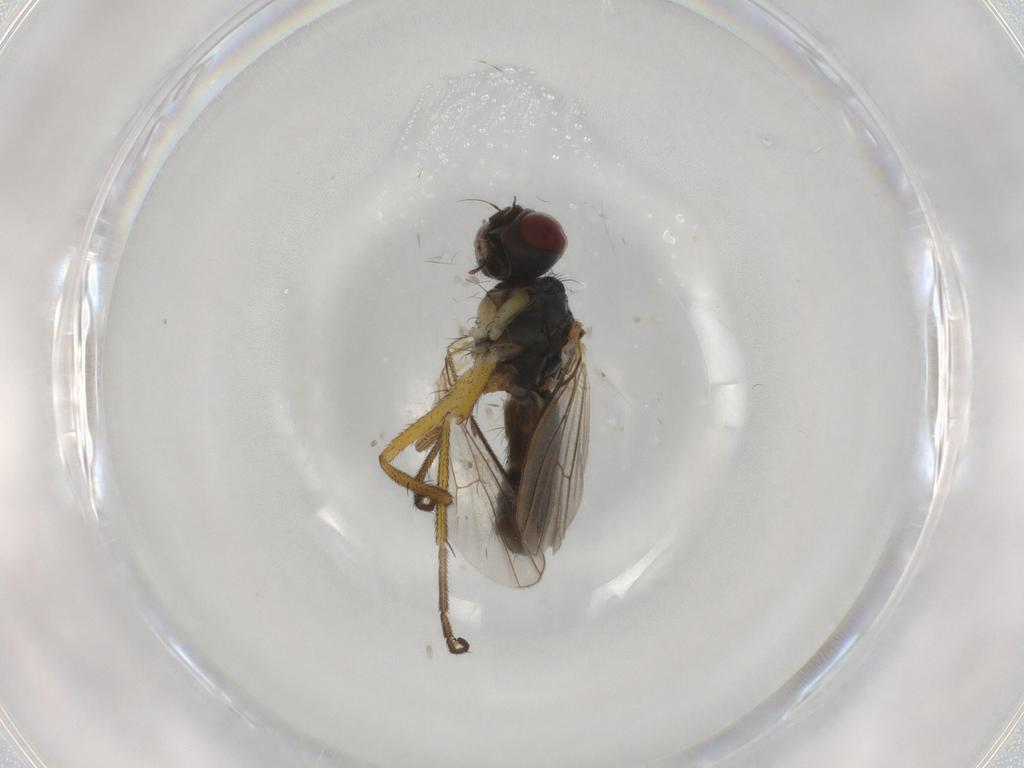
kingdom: Animalia
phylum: Arthropoda
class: Insecta
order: Diptera
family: Muscidae
